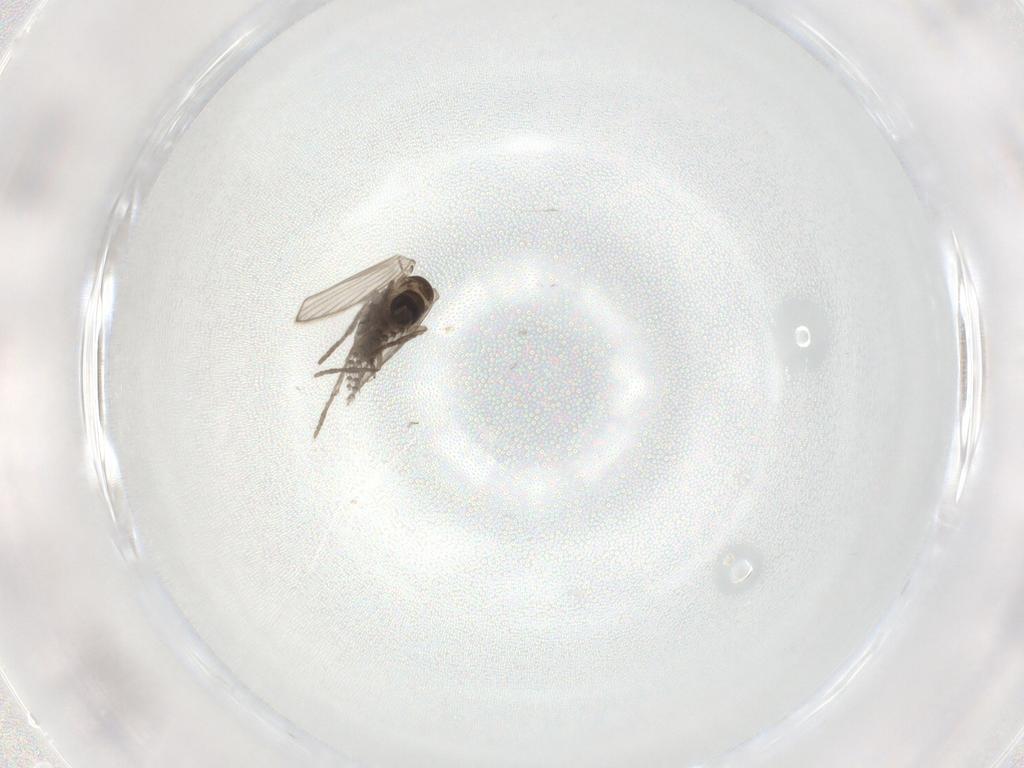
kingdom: Animalia
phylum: Arthropoda
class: Insecta
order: Diptera
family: Psychodidae
